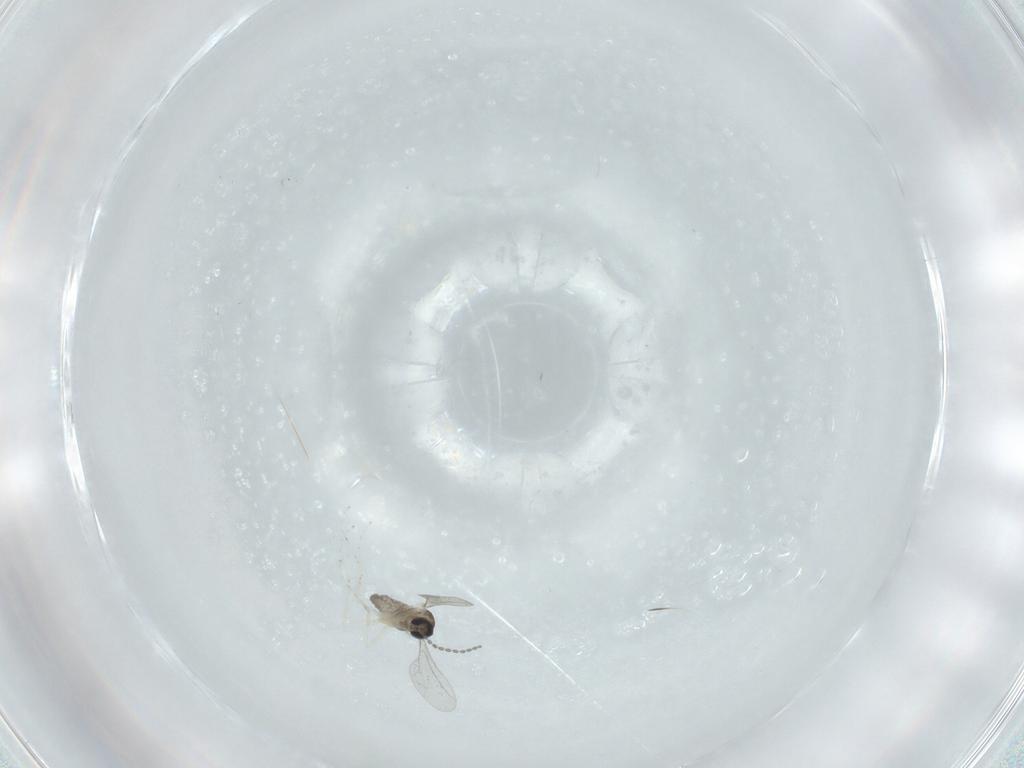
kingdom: Animalia
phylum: Arthropoda
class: Insecta
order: Diptera
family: Cecidomyiidae
